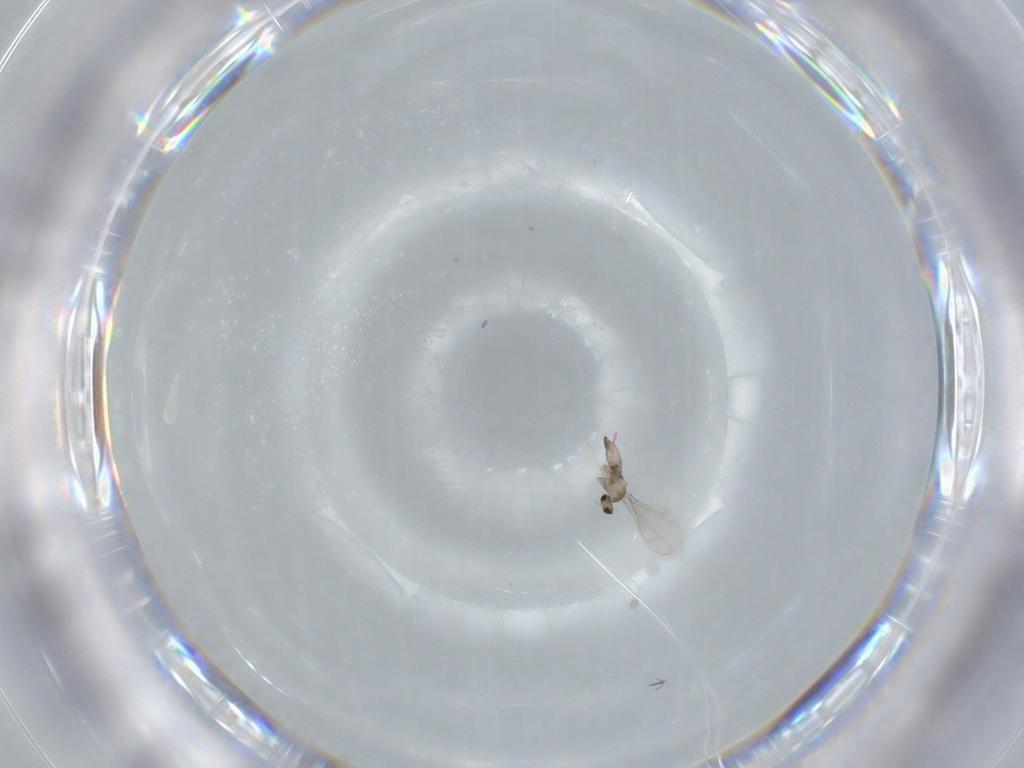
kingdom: Animalia
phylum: Arthropoda
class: Insecta
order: Diptera
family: Cecidomyiidae
